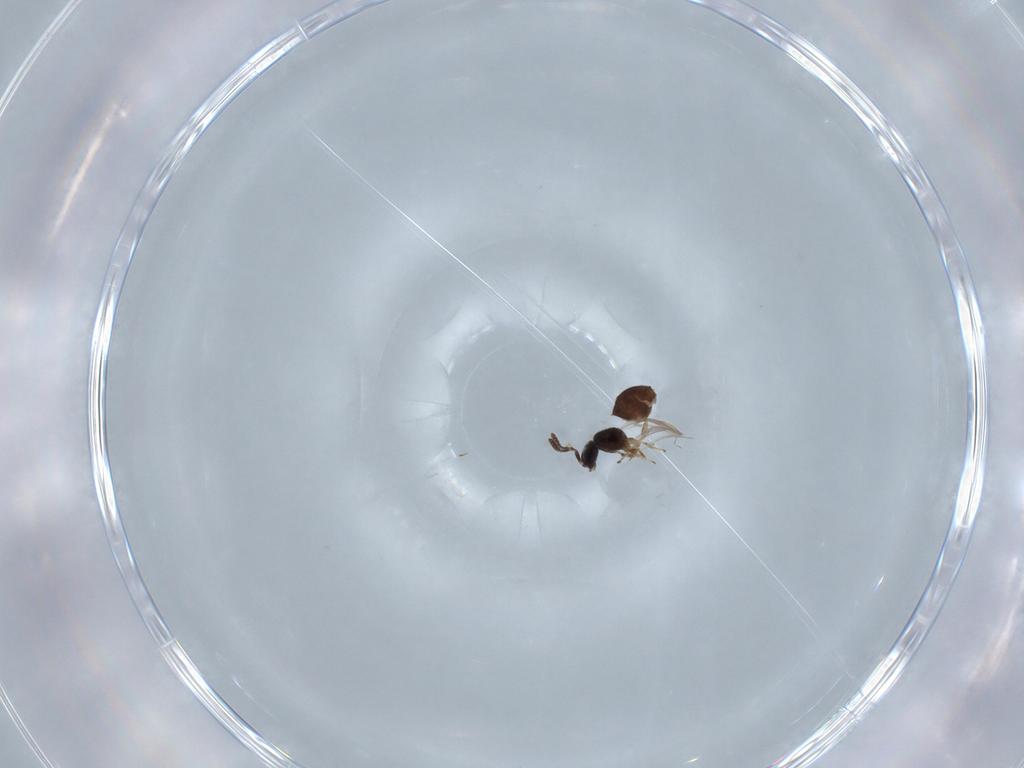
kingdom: Animalia
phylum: Arthropoda
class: Insecta
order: Hymenoptera
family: Scelionidae
